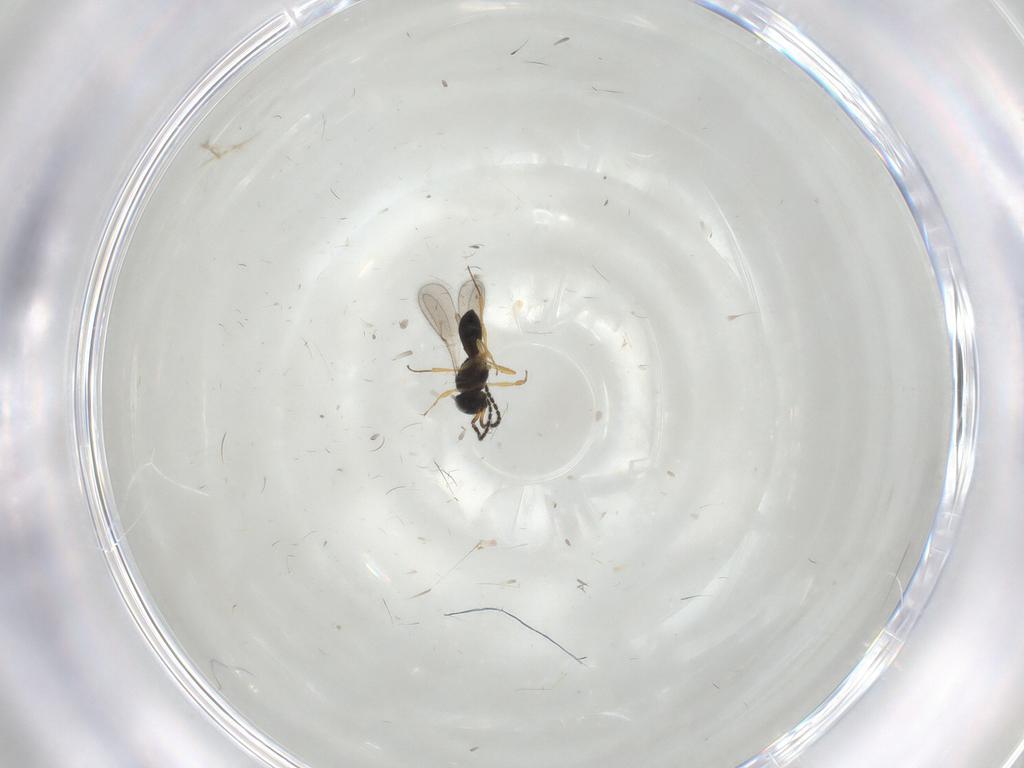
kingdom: Animalia
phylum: Arthropoda
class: Insecta
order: Hymenoptera
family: Scelionidae
